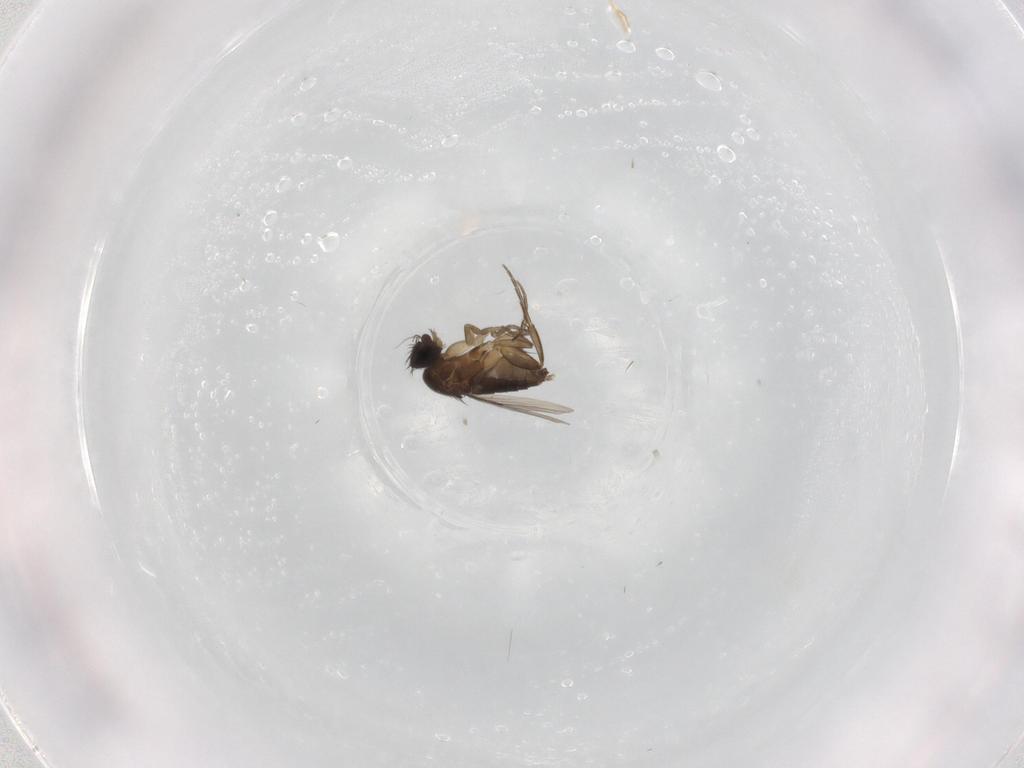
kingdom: Animalia
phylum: Arthropoda
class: Insecta
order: Diptera
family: Phoridae
